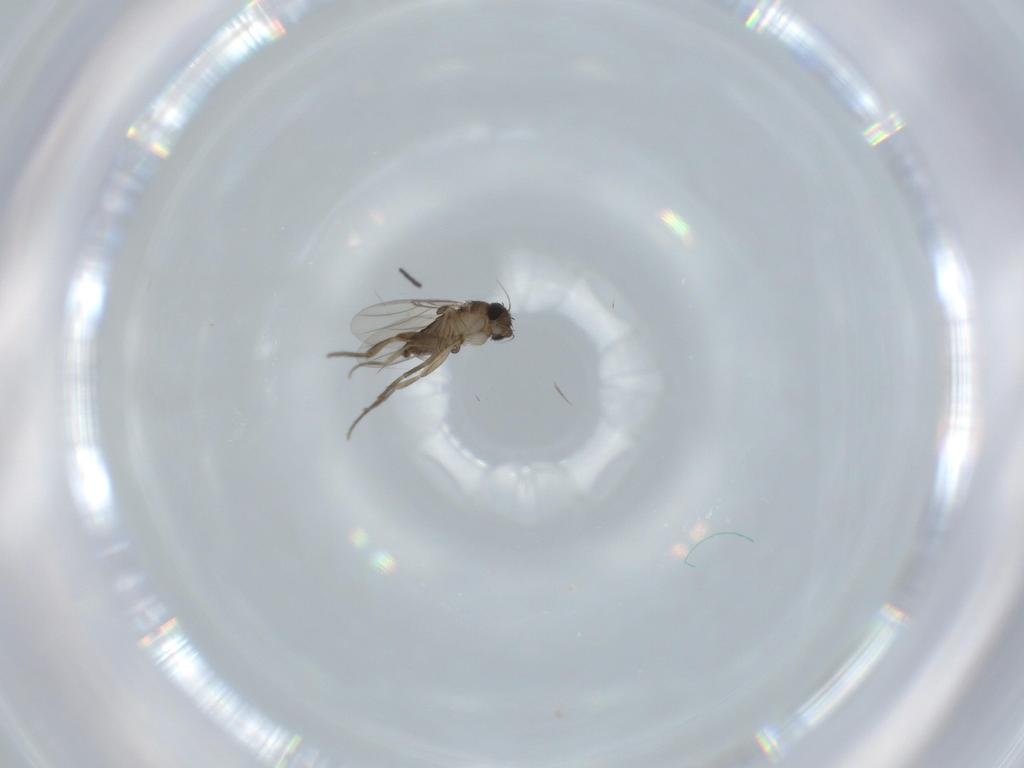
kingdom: Animalia
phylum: Arthropoda
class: Insecta
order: Diptera
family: Phoridae
